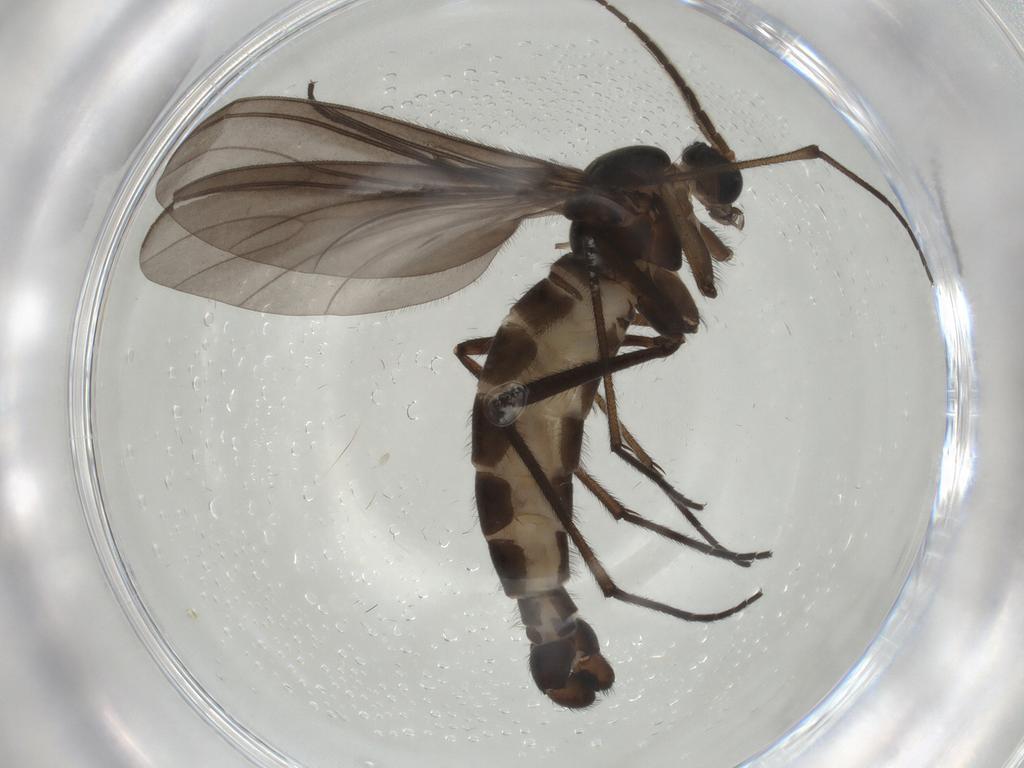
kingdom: Animalia
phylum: Arthropoda
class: Insecta
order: Diptera
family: Sciaridae
